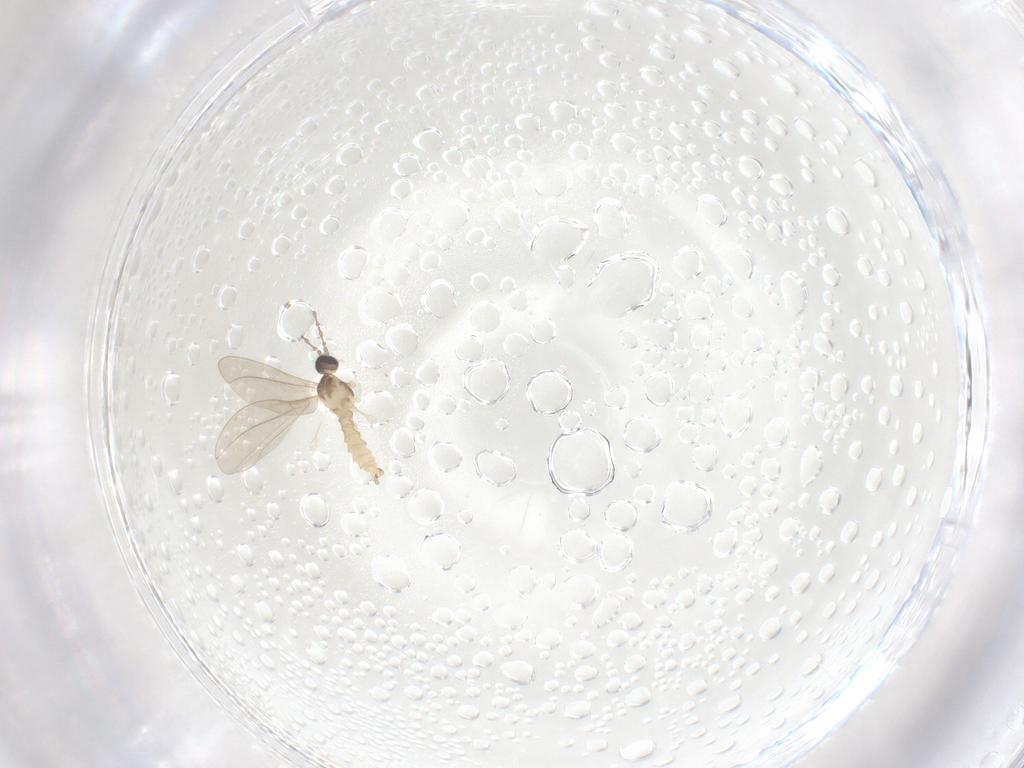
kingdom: Animalia
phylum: Arthropoda
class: Insecta
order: Diptera
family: Cecidomyiidae
